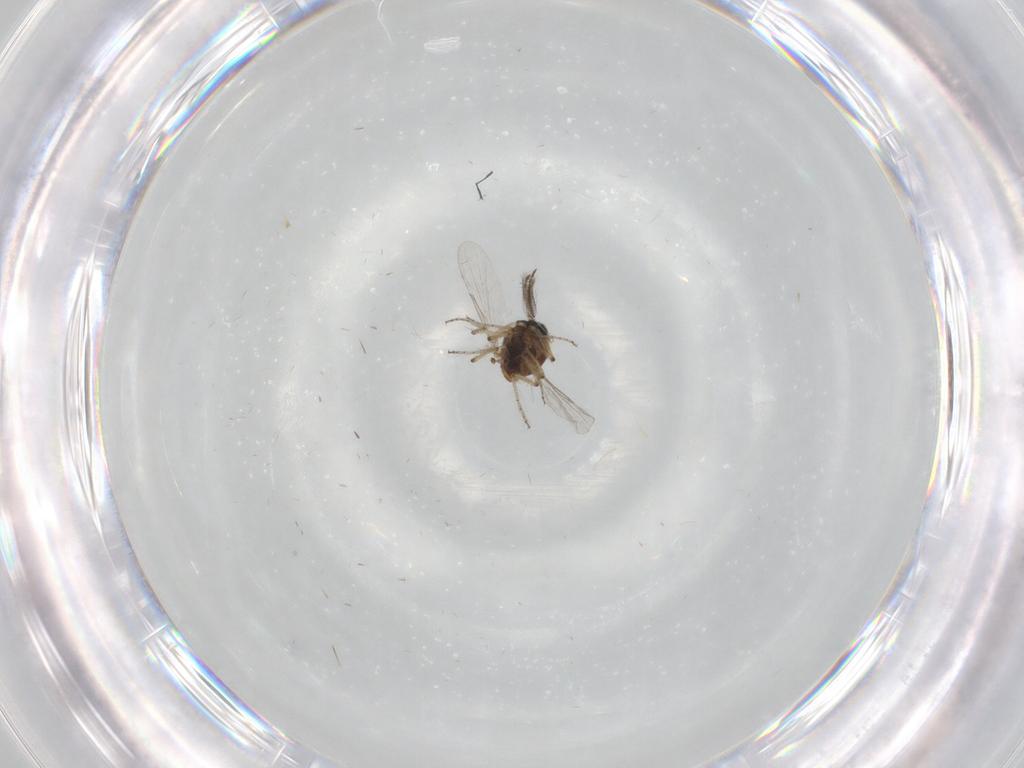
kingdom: Animalia
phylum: Arthropoda
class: Insecta
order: Diptera
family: Ceratopogonidae
